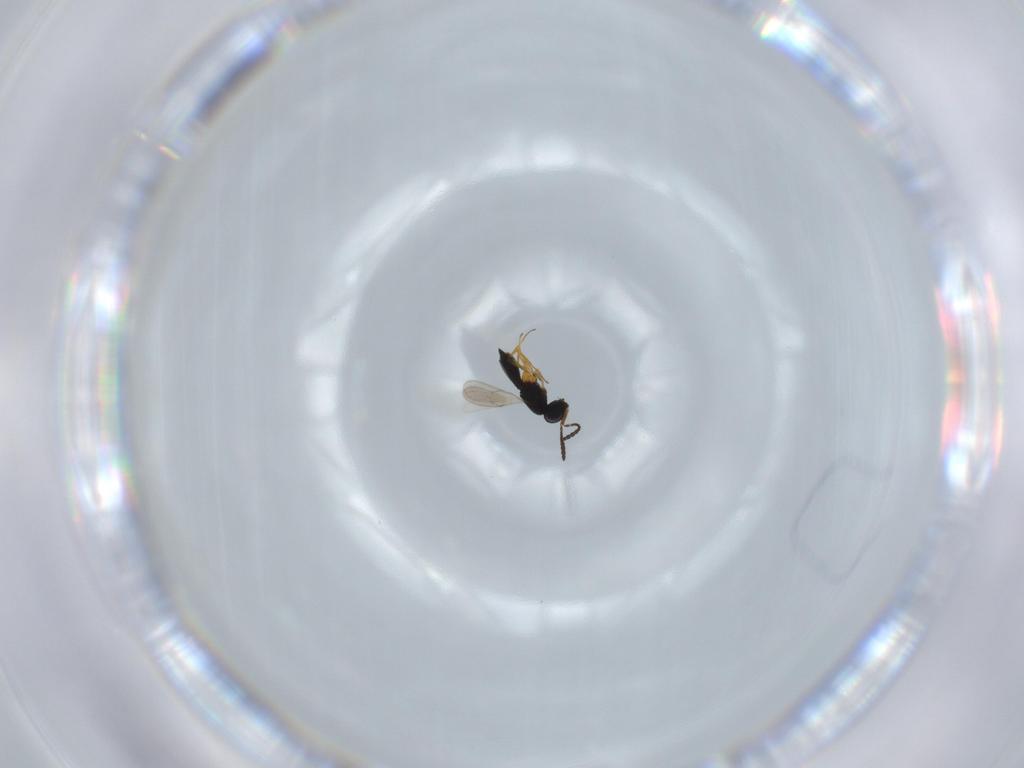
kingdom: Animalia
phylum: Arthropoda
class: Insecta
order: Hymenoptera
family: Scelionidae
